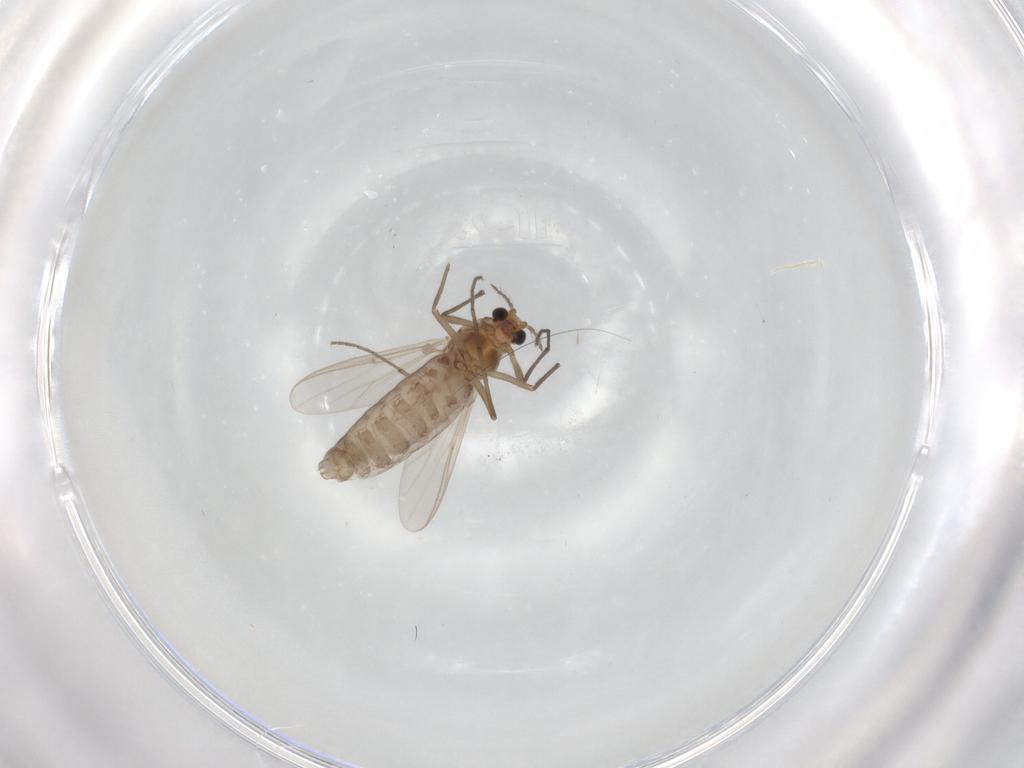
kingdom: Animalia
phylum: Arthropoda
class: Insecta
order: Diptera
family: Chironomidae
